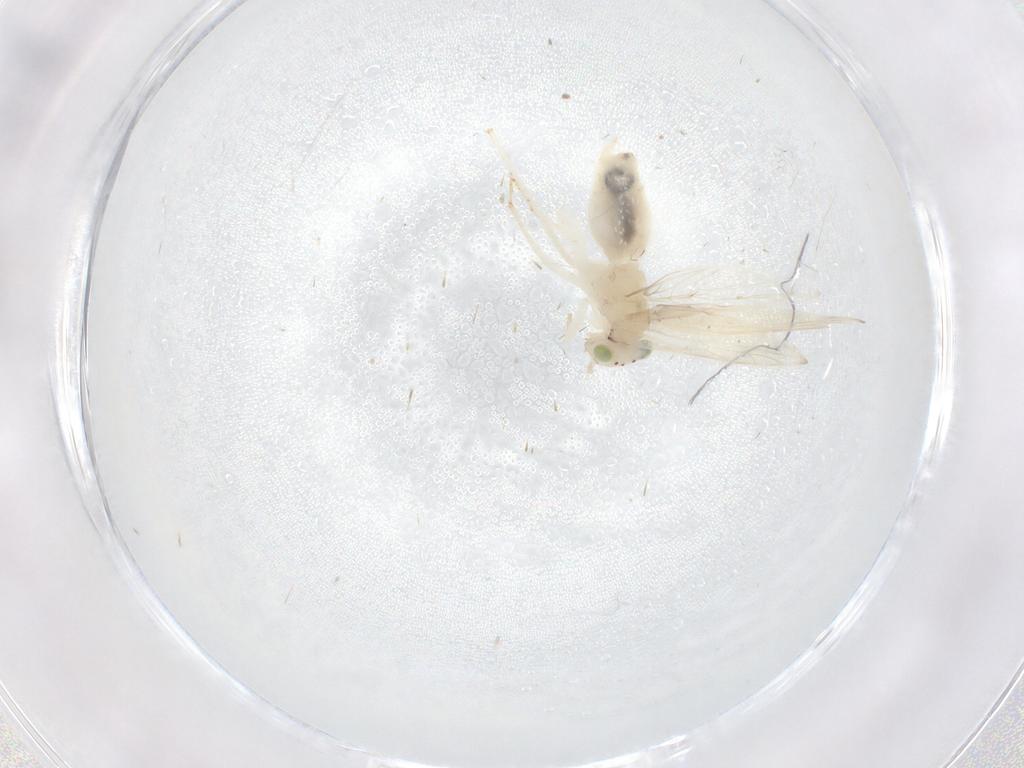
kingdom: Animalia
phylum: Arthropoda
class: Insecta
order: Psocodea
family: Lepidopsocidae
